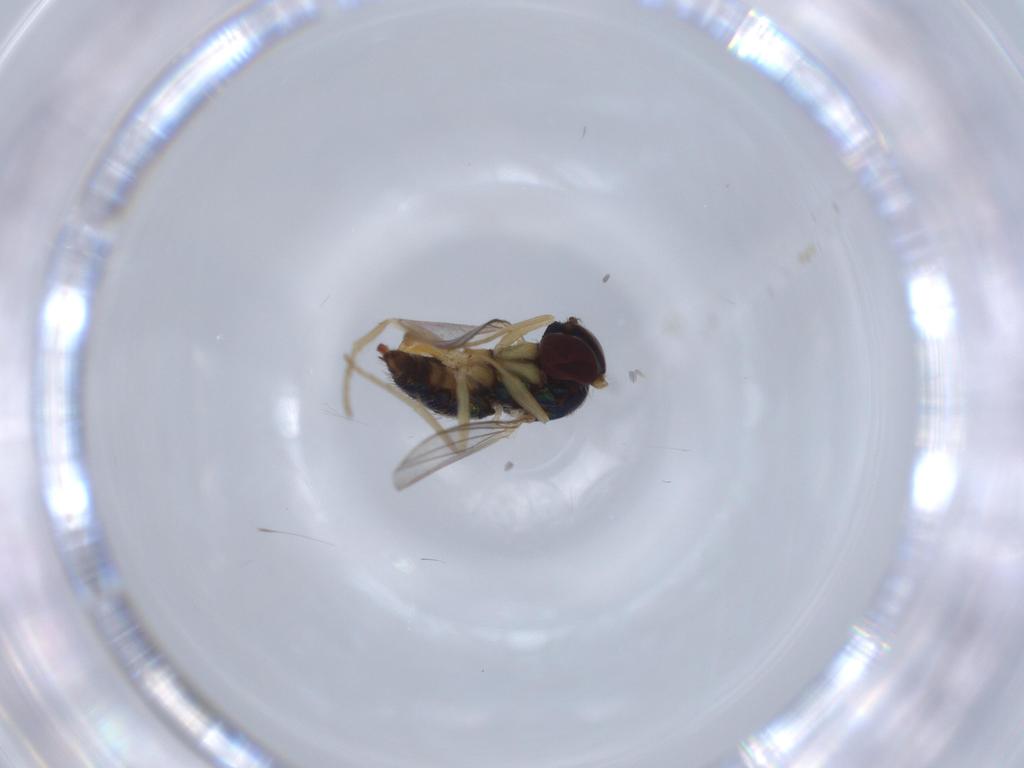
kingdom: Animalia
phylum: Arthropoda
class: Insecta
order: Diptera
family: Dolichopodidae
